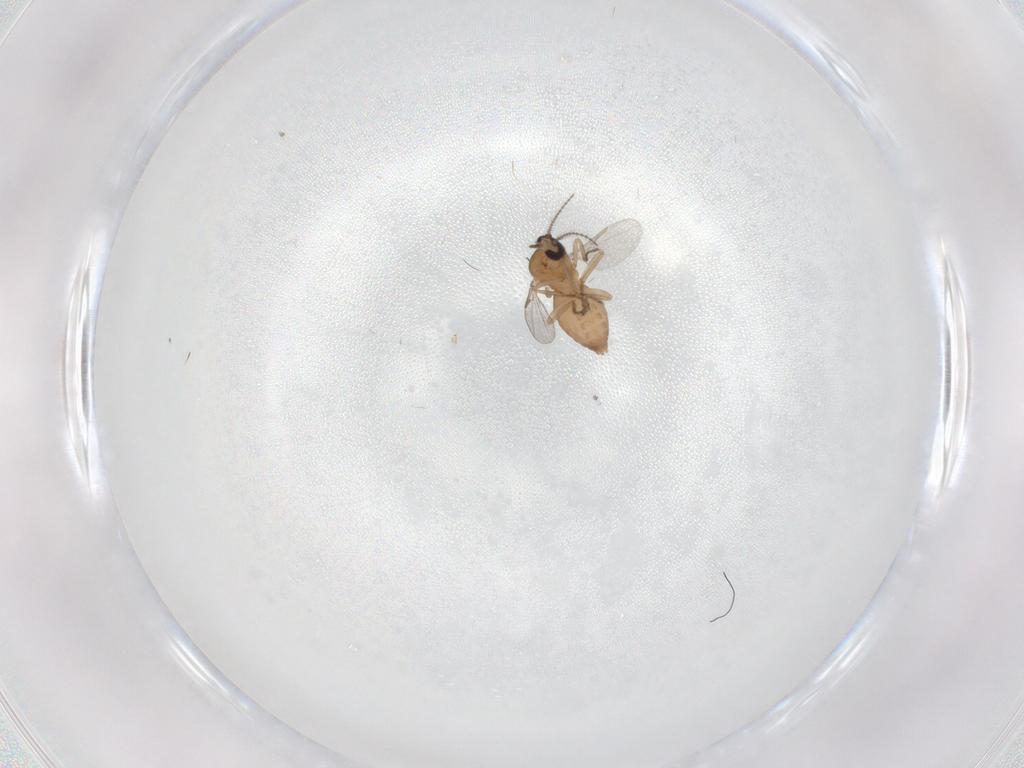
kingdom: Animalia
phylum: Arthropoda
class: Insecta
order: Diptera
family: Ceratopogonidae
